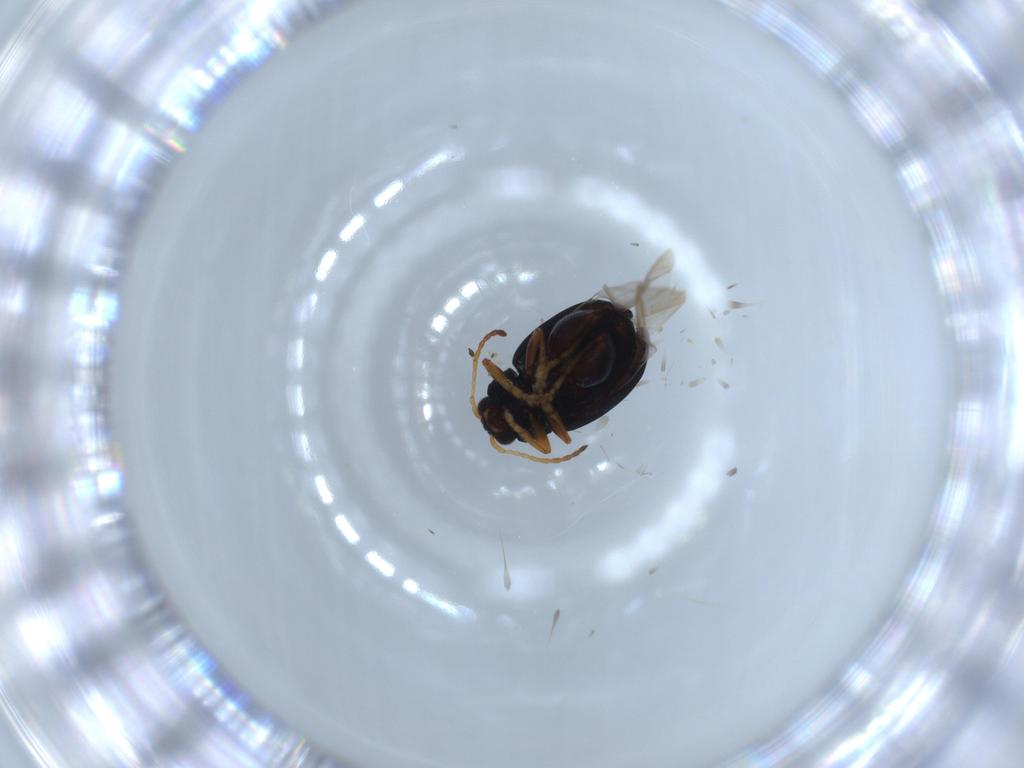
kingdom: Animalia
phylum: Arthropoda
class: Insecta
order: Coleoptera
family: Chrysomelidae
